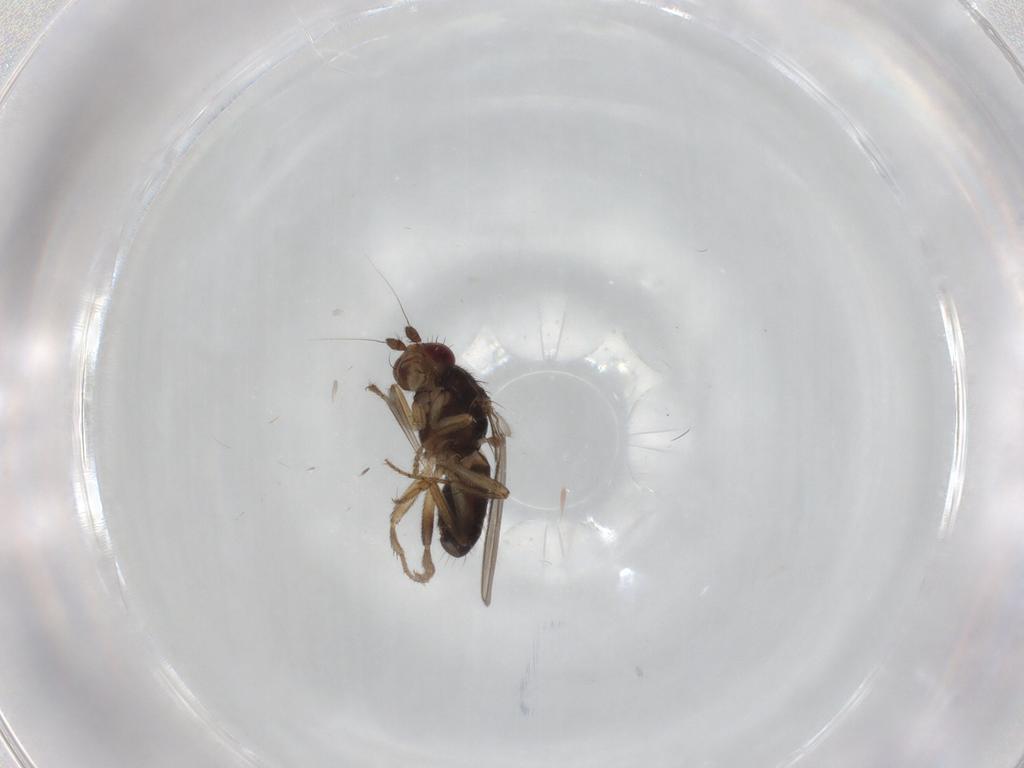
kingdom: Animalia
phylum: Arthropoda
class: Insecta
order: Diptera
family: Sphaeroceridae
